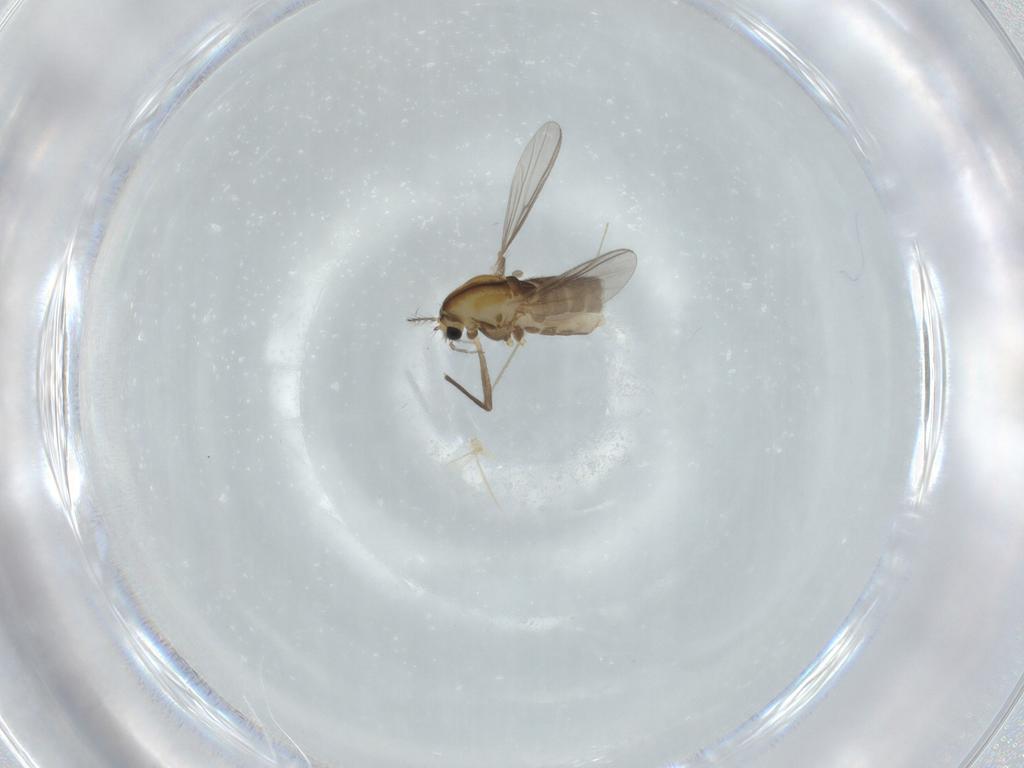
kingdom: Animalia
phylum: Arthropoda
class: Insecta
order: Diptera
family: Chironomidae
